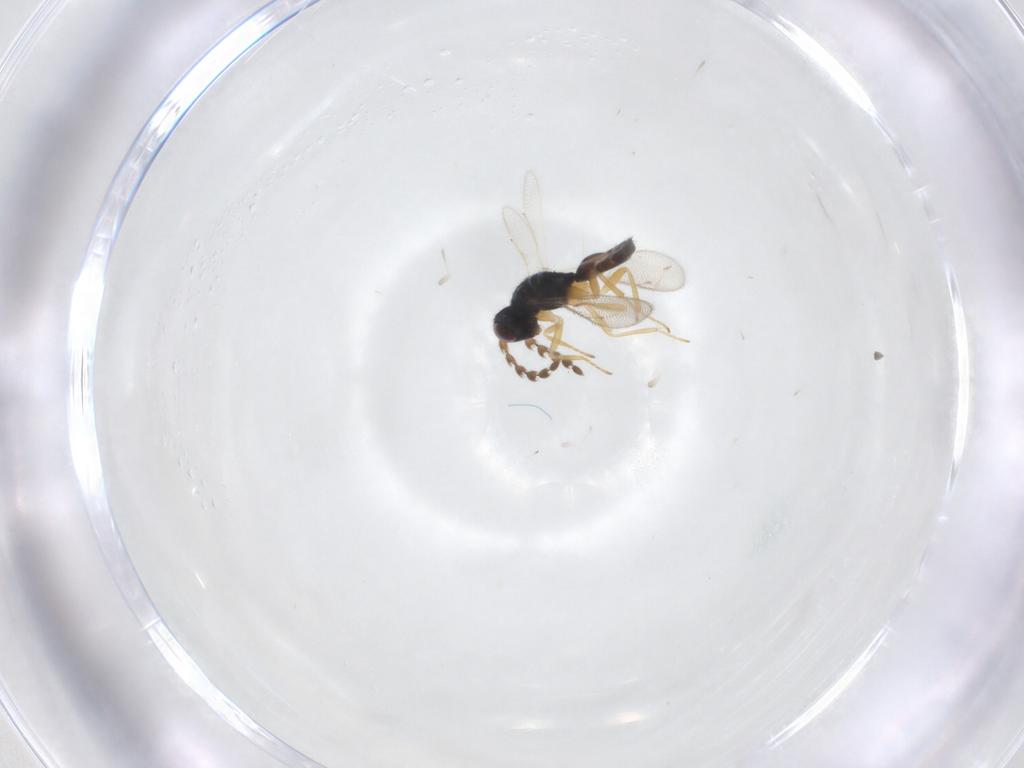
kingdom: Animalia
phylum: Arthropoda
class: Insecta
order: Hymenoptera
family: Eulophidae
